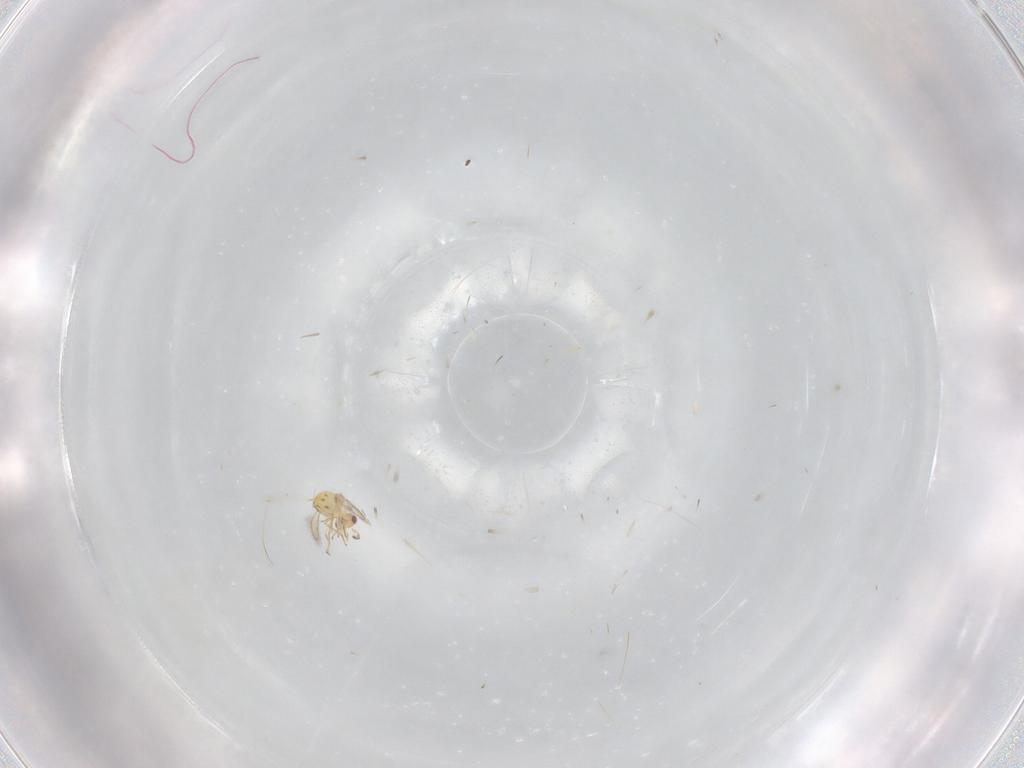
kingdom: Animalia
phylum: Arthropoda
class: Insecta
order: Hymenoptera
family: Mymaridae
